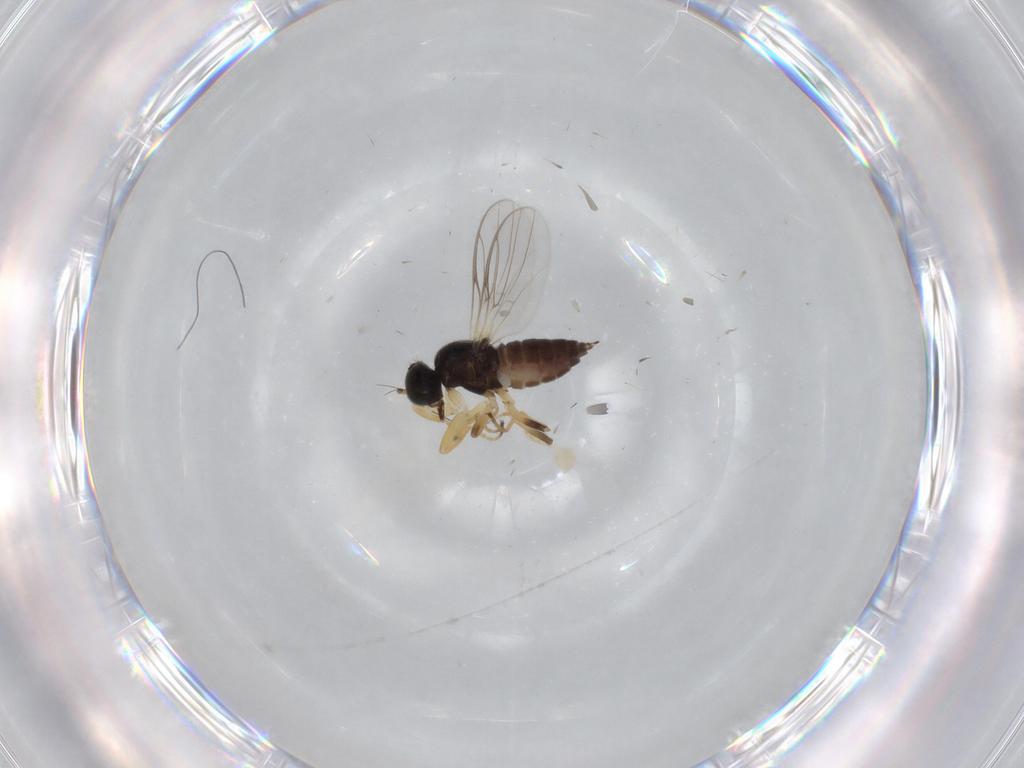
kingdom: Animalia
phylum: Arthropoda
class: Insecta
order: Diptera
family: Hybotidae
